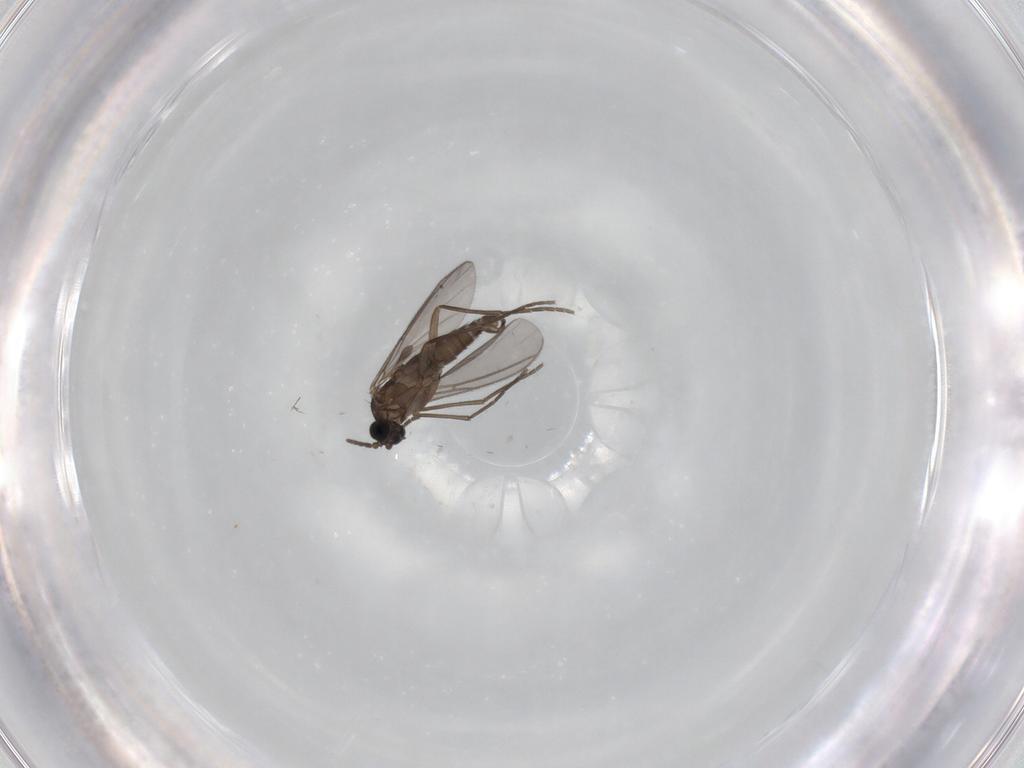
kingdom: Animalia
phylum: Arthropoda
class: Insecta
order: Diptera
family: Sciaridae
